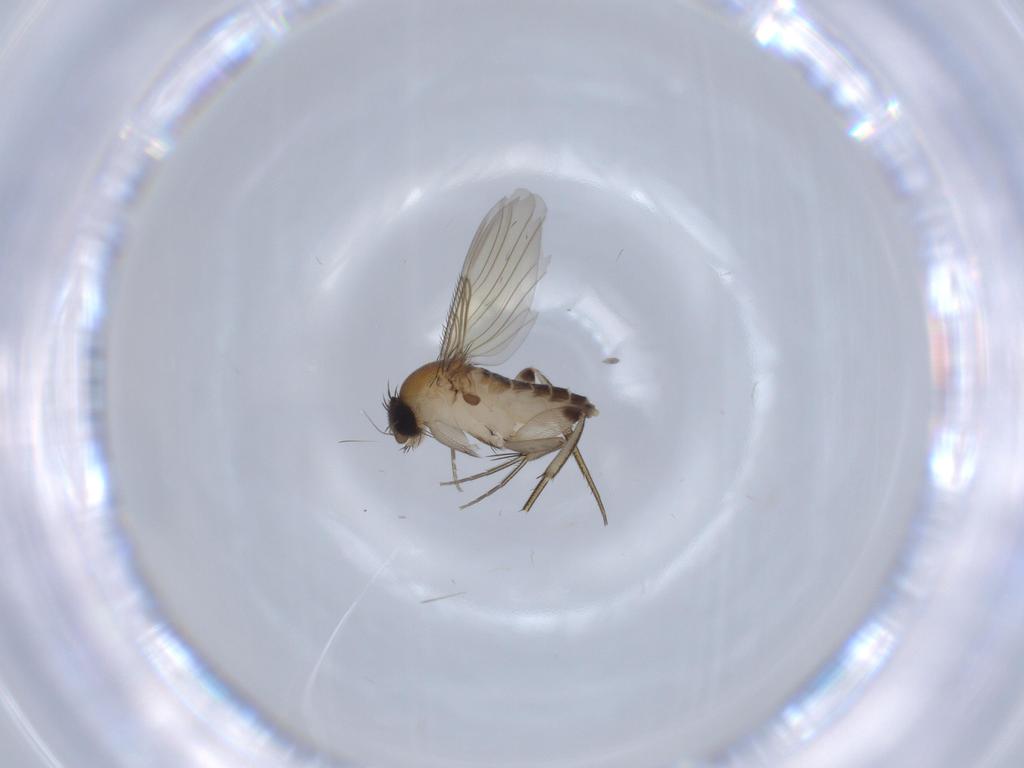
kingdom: Animalia
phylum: Arthropoda
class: Insecta
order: Diptera
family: Phoridae
